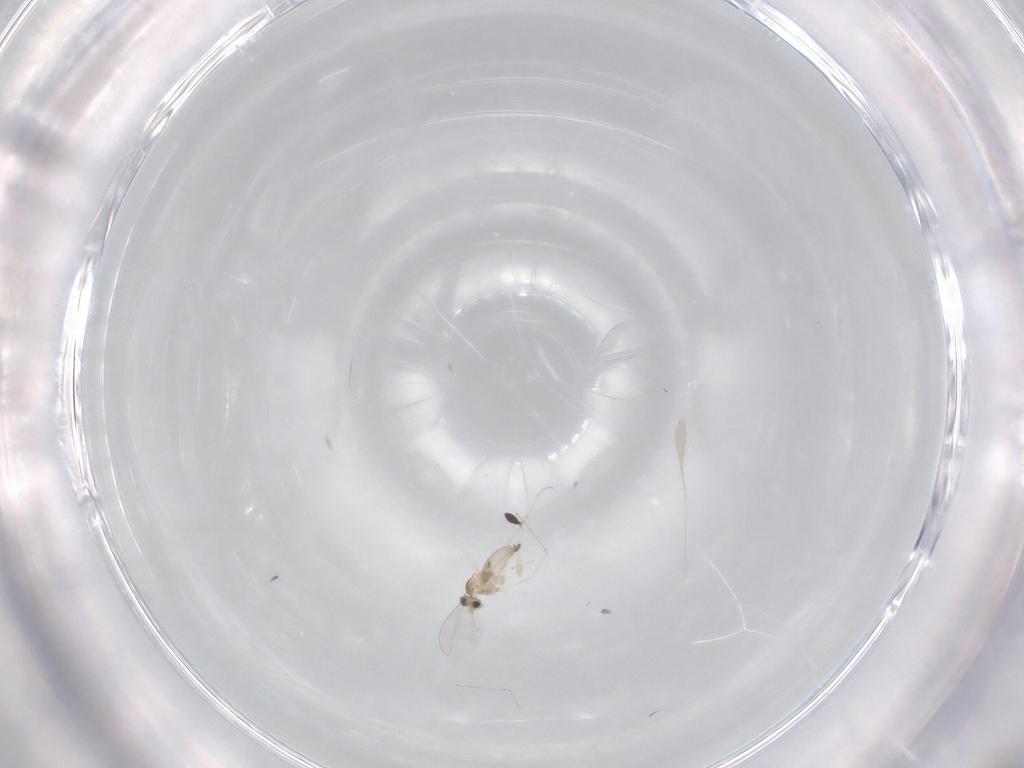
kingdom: Animalia
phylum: Arthropoda
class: Insecta
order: Diptera
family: Cecidomyiidae
